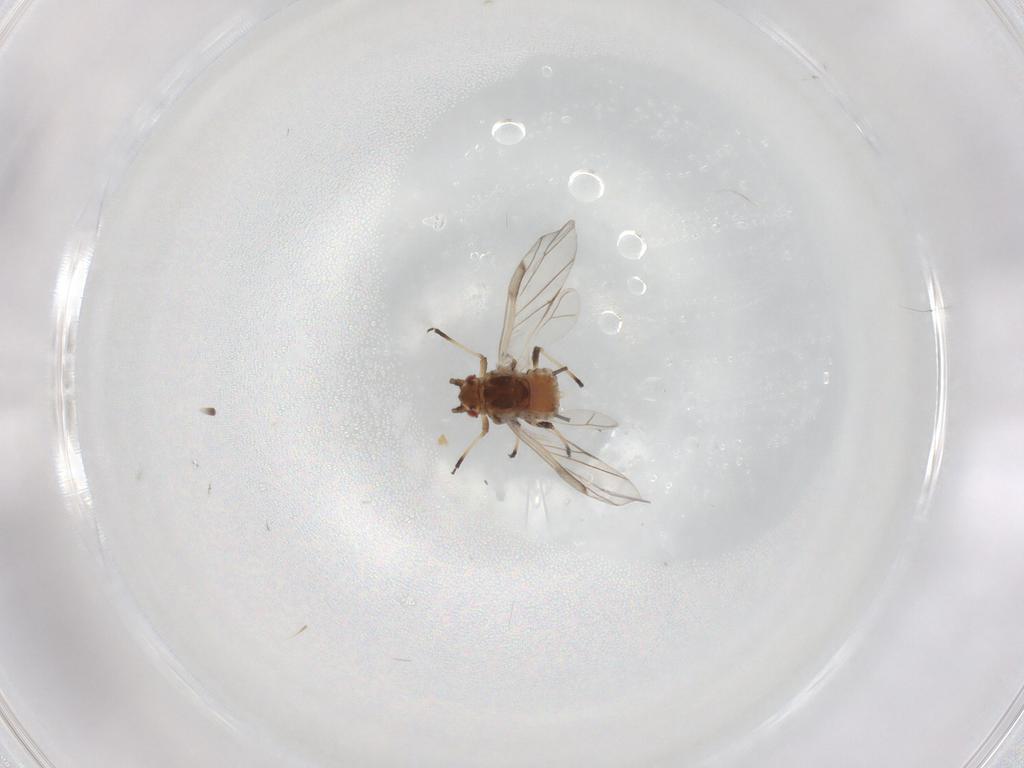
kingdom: Animalia
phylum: Arthropoda
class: Insecta
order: Hemiptera
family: Aphididae
